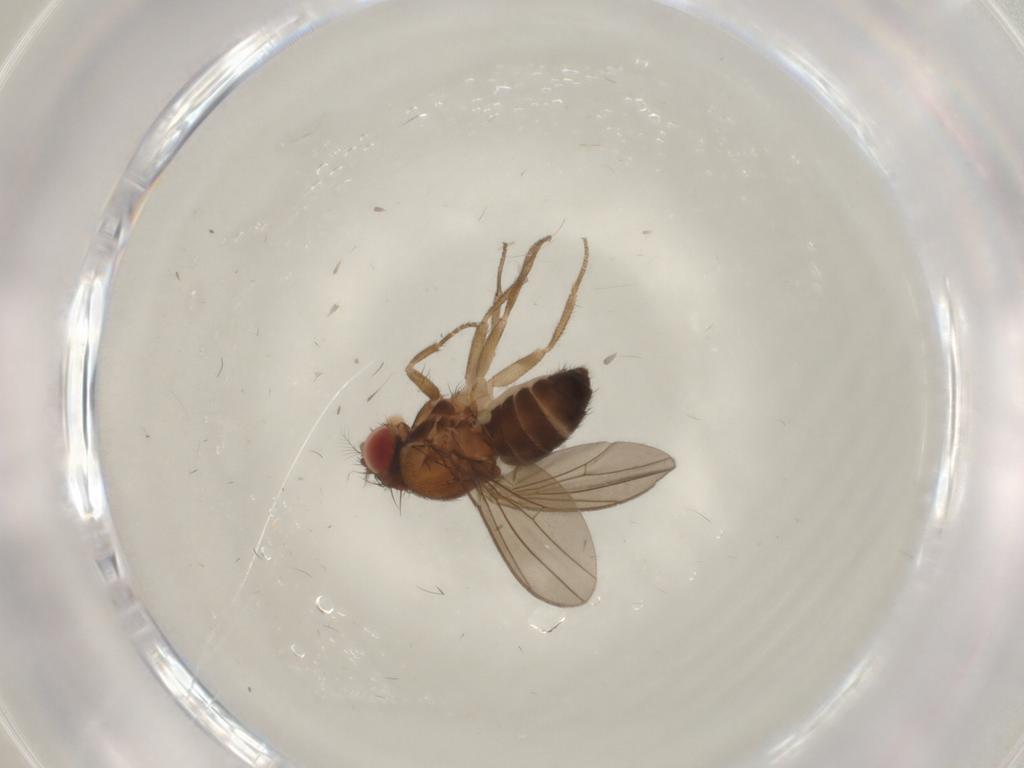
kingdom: Animalia
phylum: Arthropoda
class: Insecta
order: Diptera
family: Drosophilidae
